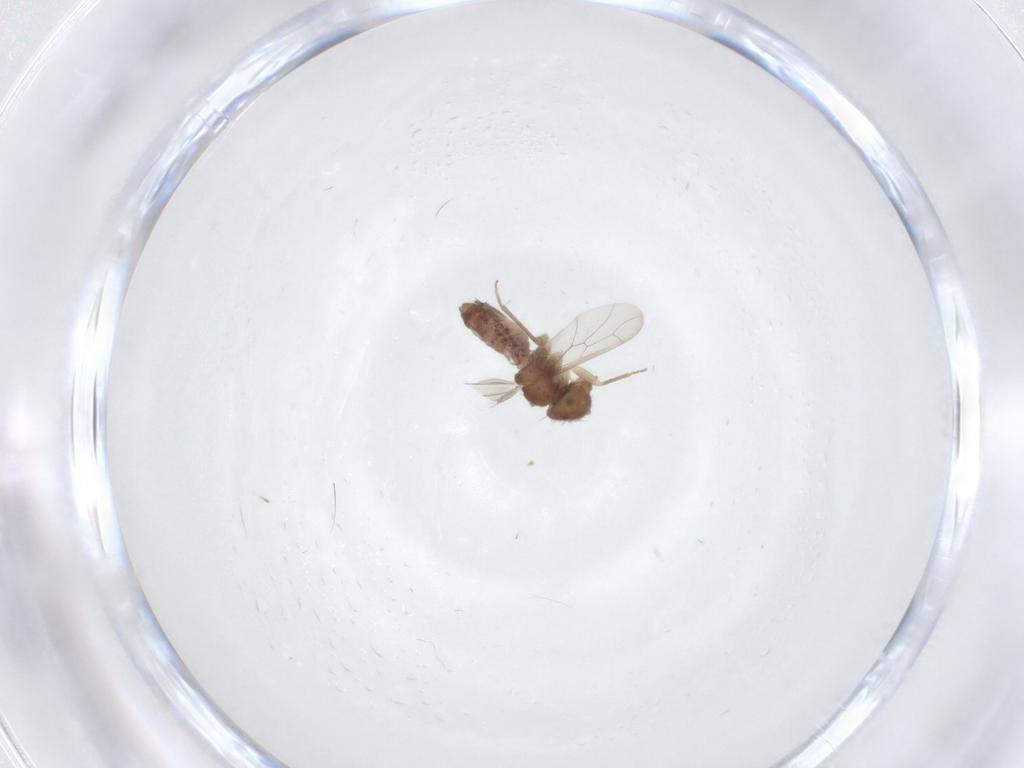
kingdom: Animalia
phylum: Arthropoda
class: Insecta
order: Psocodea
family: Ectopsocidae
